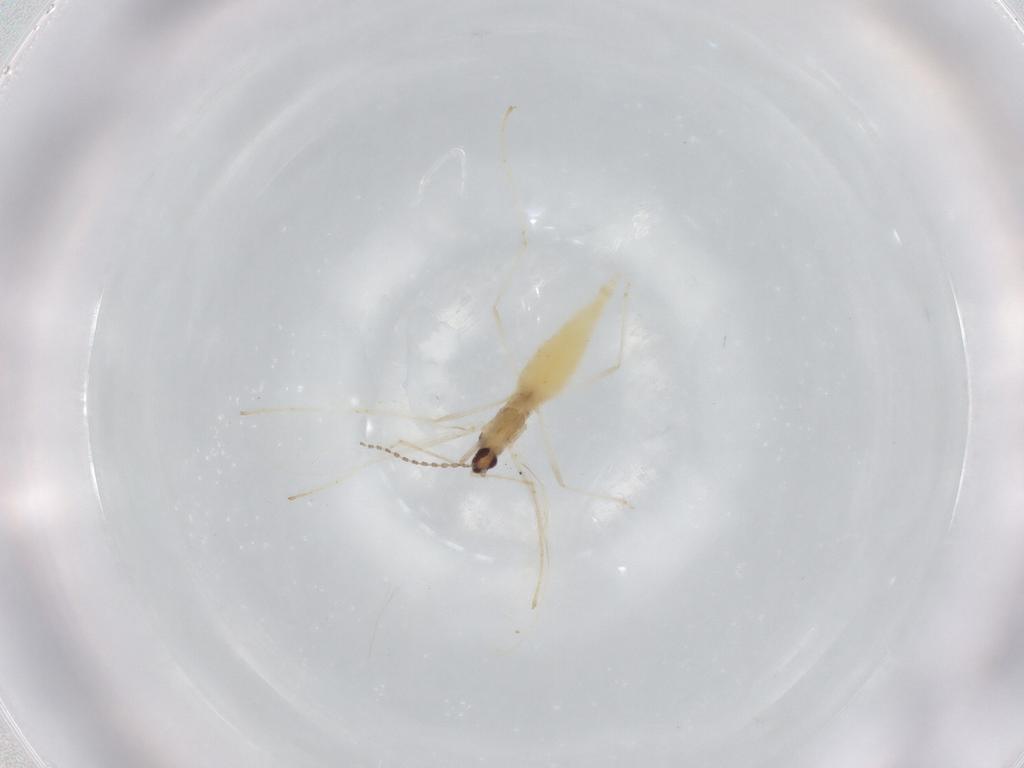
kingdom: Animalia
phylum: Arthropoda
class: Insecta
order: Diptera
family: Cecidomyiidae
